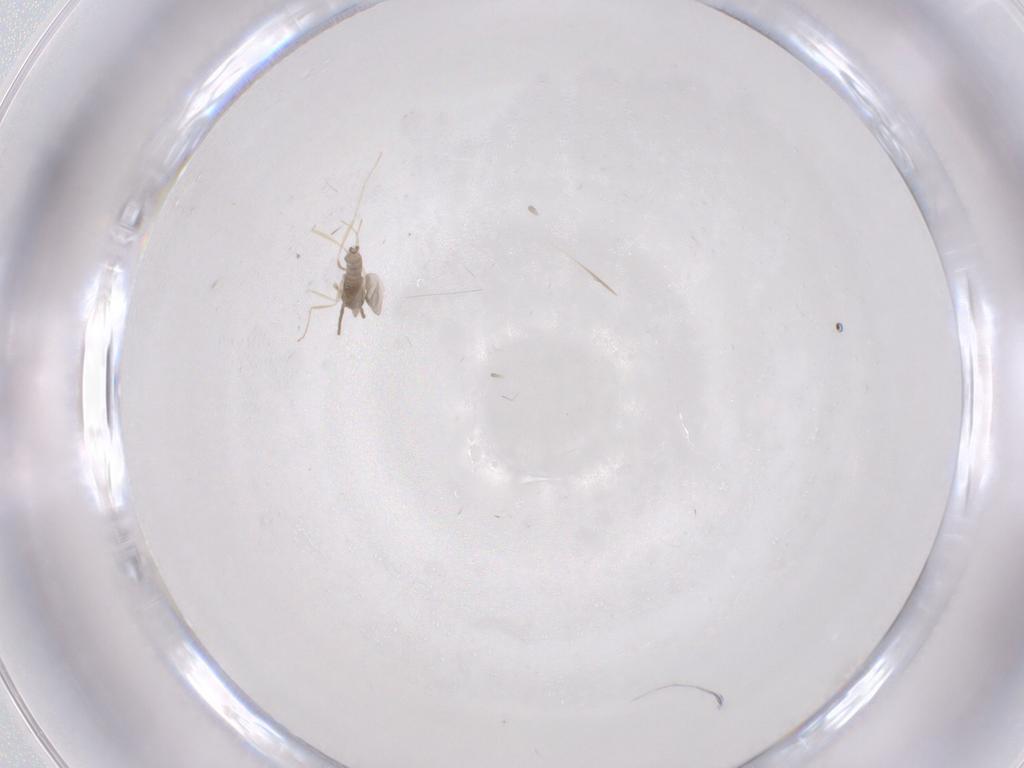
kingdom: Animalia
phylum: Arthropoda
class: Insecta
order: Diptera
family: Cecidomyiidae
